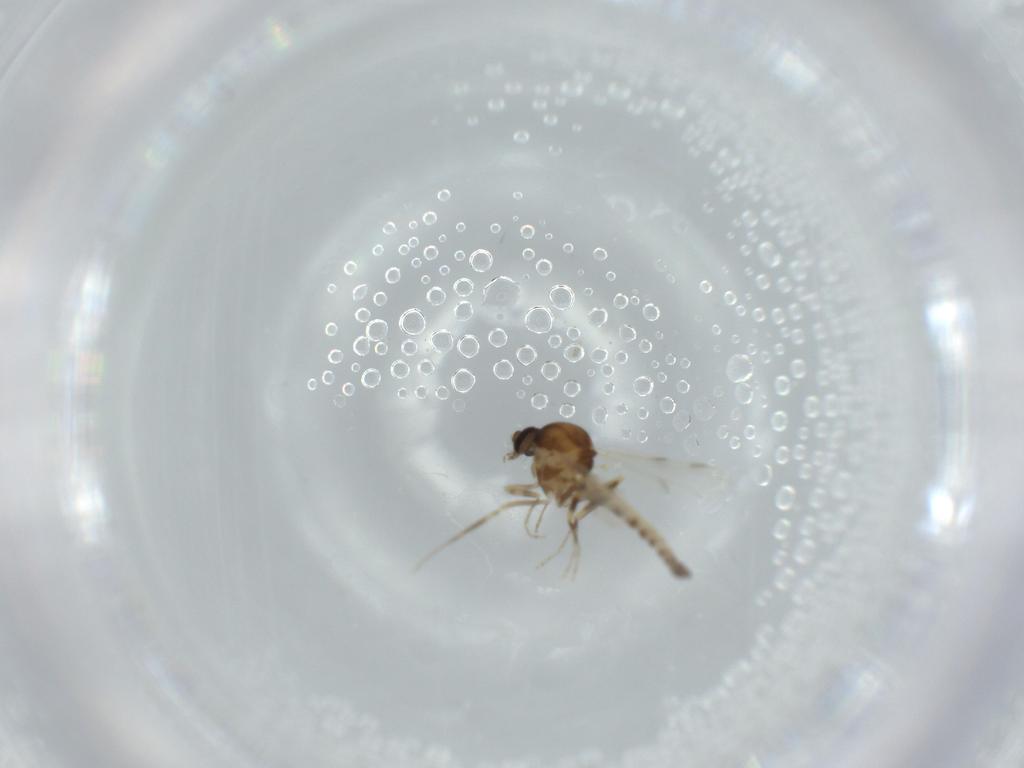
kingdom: Animalia
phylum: Arthropoda
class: Insecta
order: Diptera
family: Ceratopogonidae
